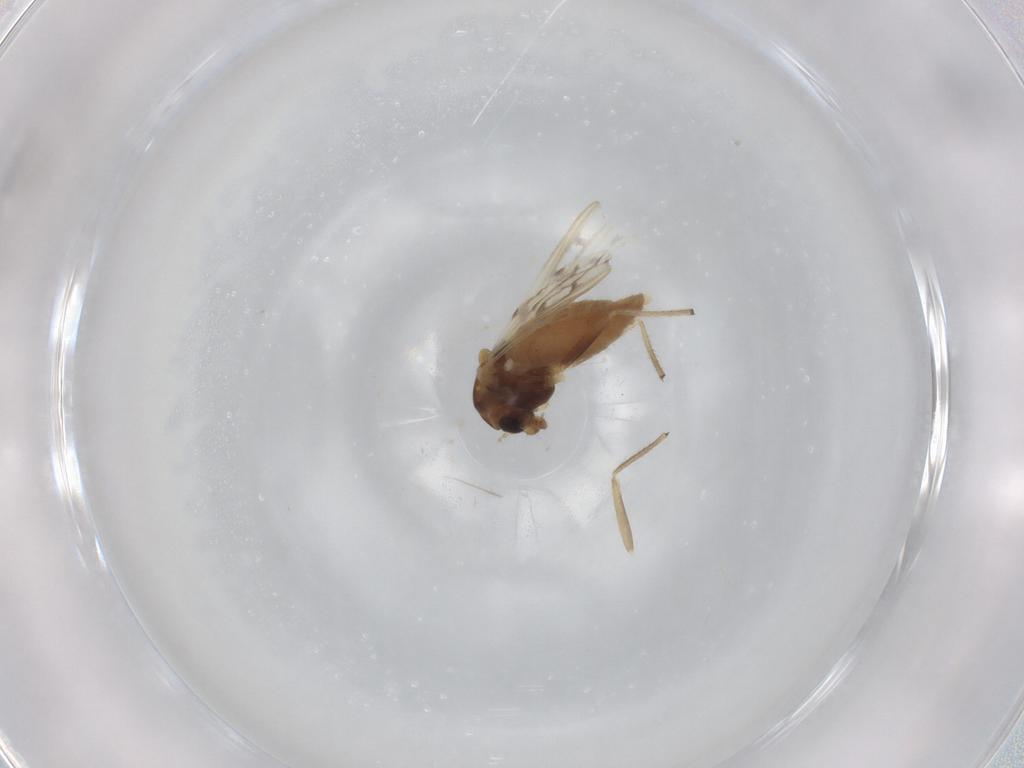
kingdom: Animalia
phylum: Arthropoda
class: Insecta
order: Diptera
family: Chironomidae
